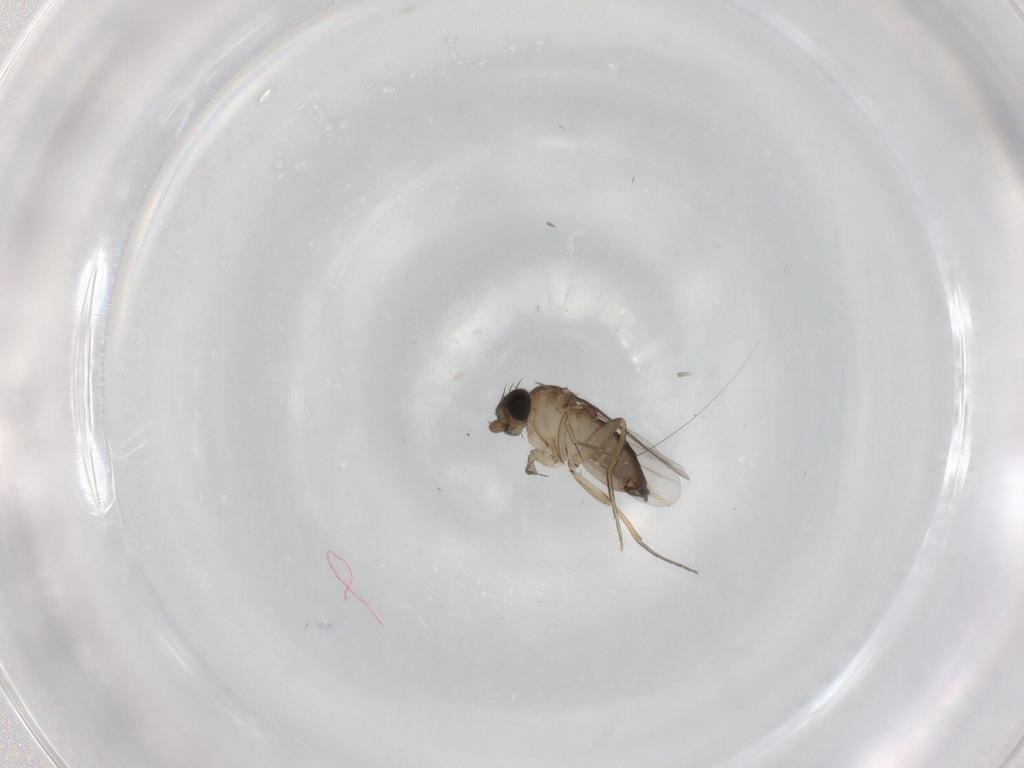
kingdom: Animalia
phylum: Arthropoda
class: Insecta
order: Diptera
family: Phoridae
